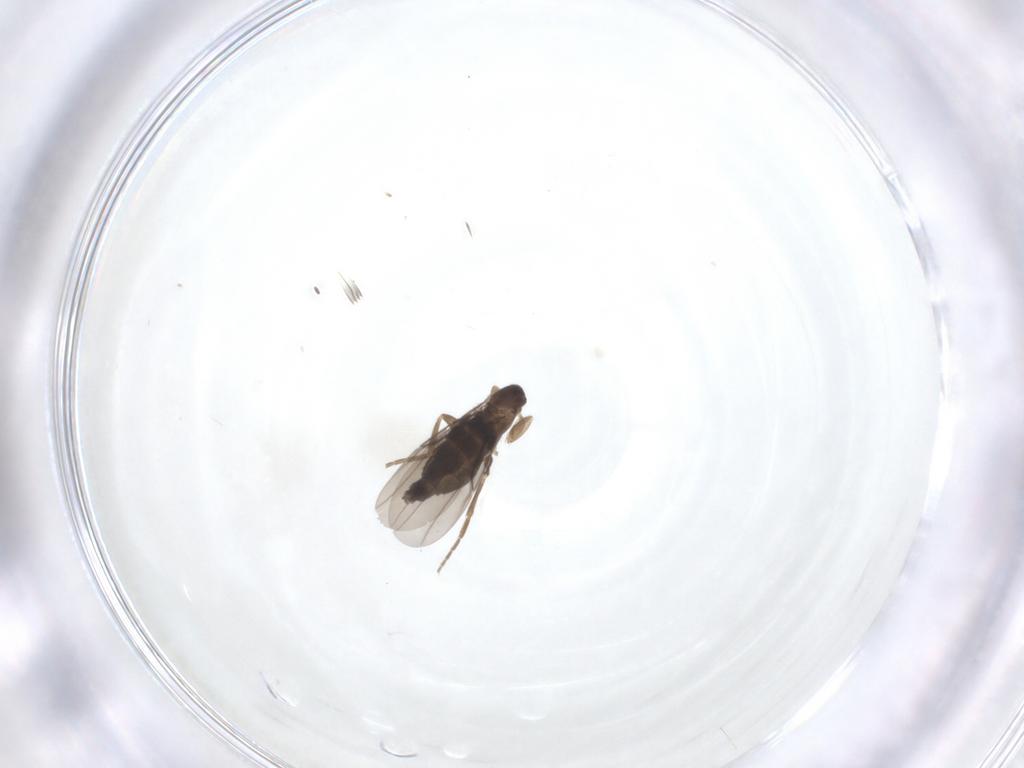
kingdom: Animalia
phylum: Arthropoda
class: Insecta
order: Diptera
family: Phoridae
